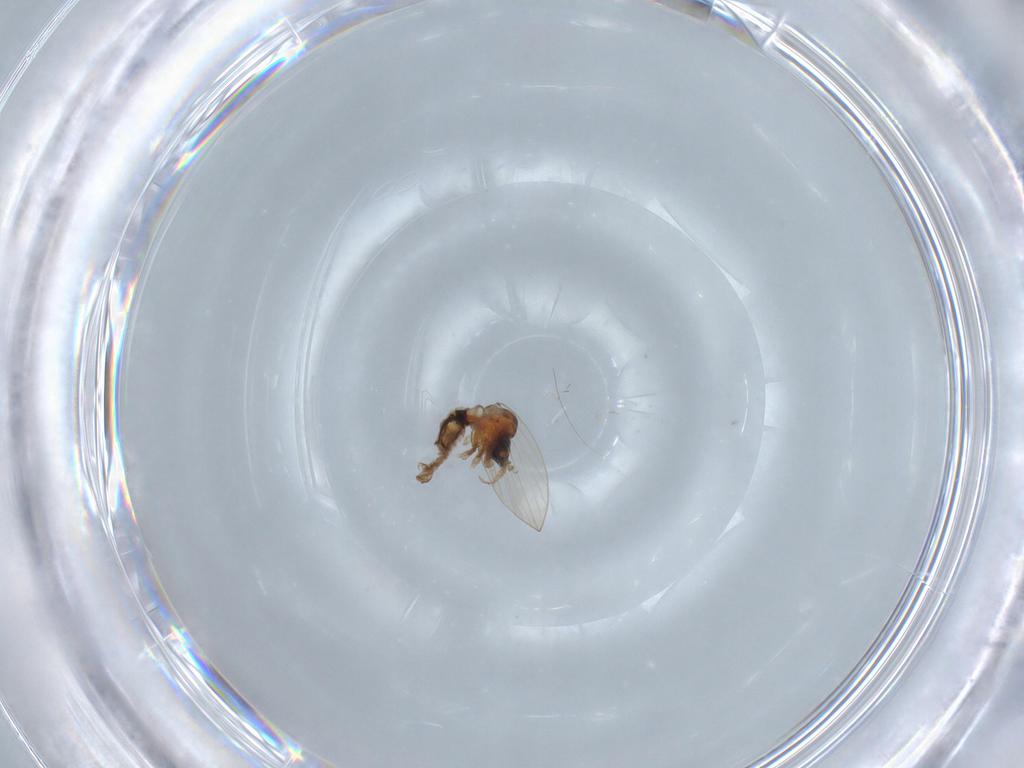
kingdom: Animalia
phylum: Arthropoda
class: Insecta
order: Diptera
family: Psychodidae
